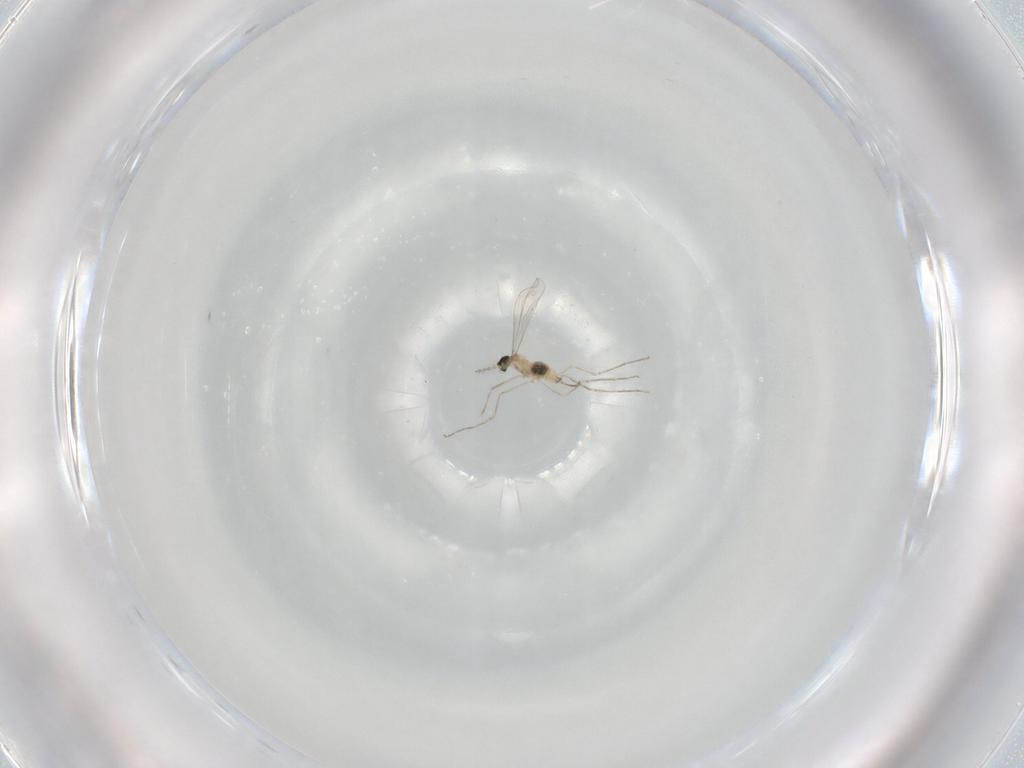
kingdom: Animalia
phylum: Arthropoda
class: Insecta
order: Diptera
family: Cecidomyiidae
